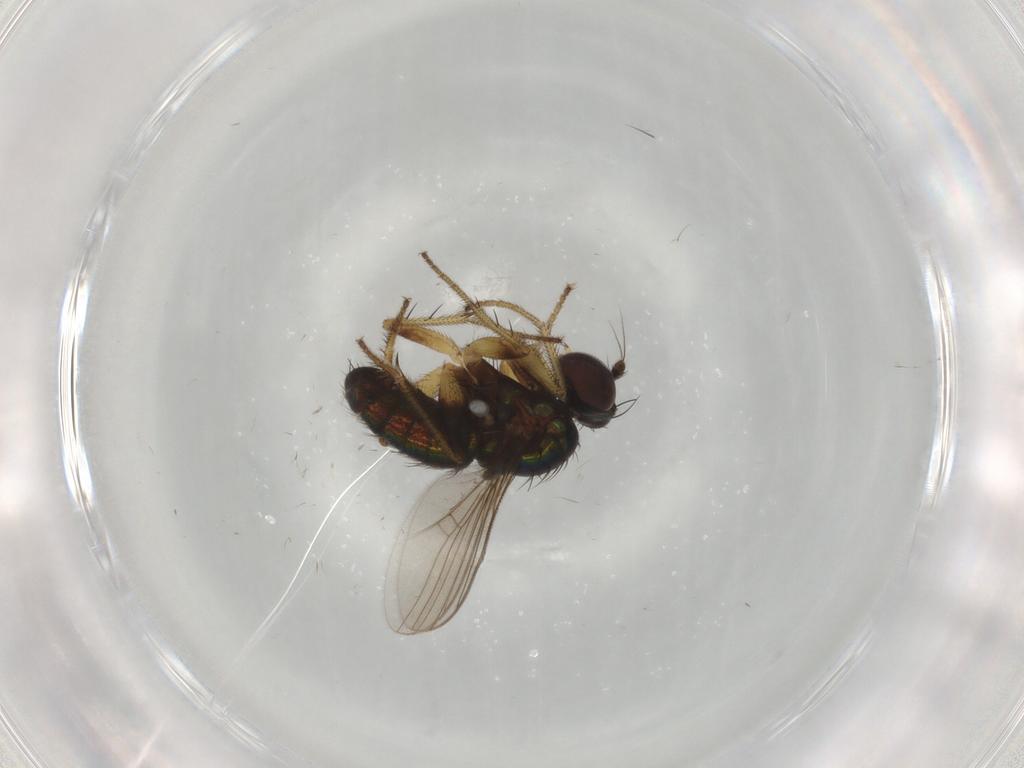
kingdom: Animalia
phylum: Arthropoda
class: Insecta
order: Diptera
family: Dolichopodidae
